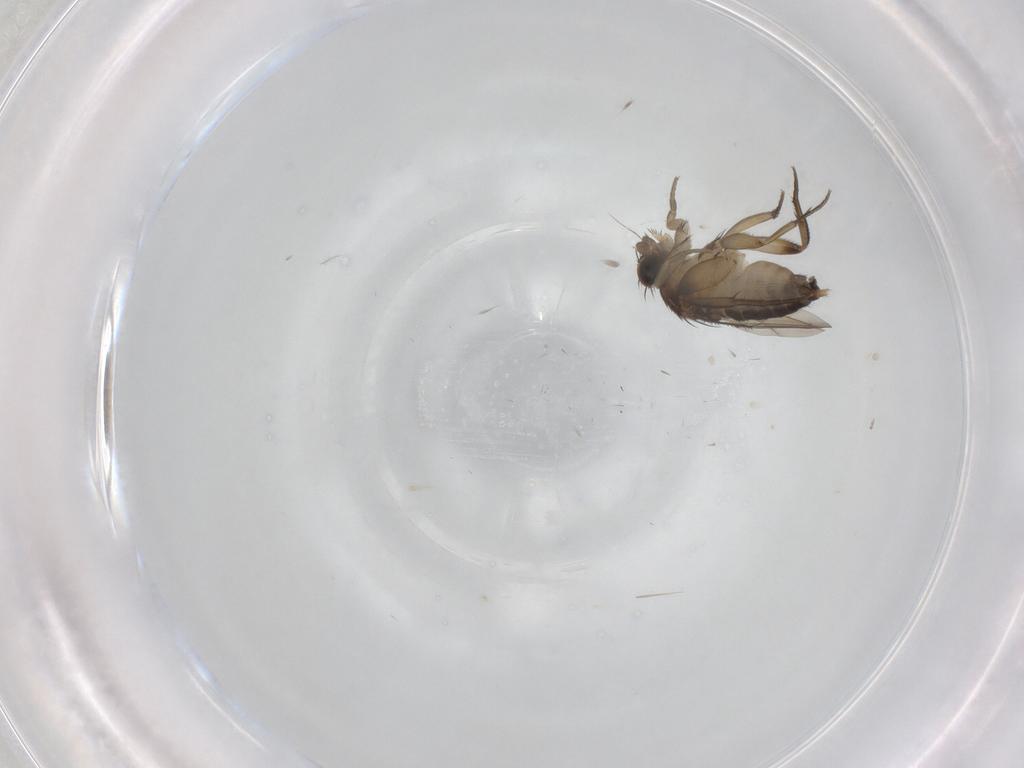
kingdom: Animalia
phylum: Arthropoda
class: Insecta
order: Diptera
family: Phoridae
